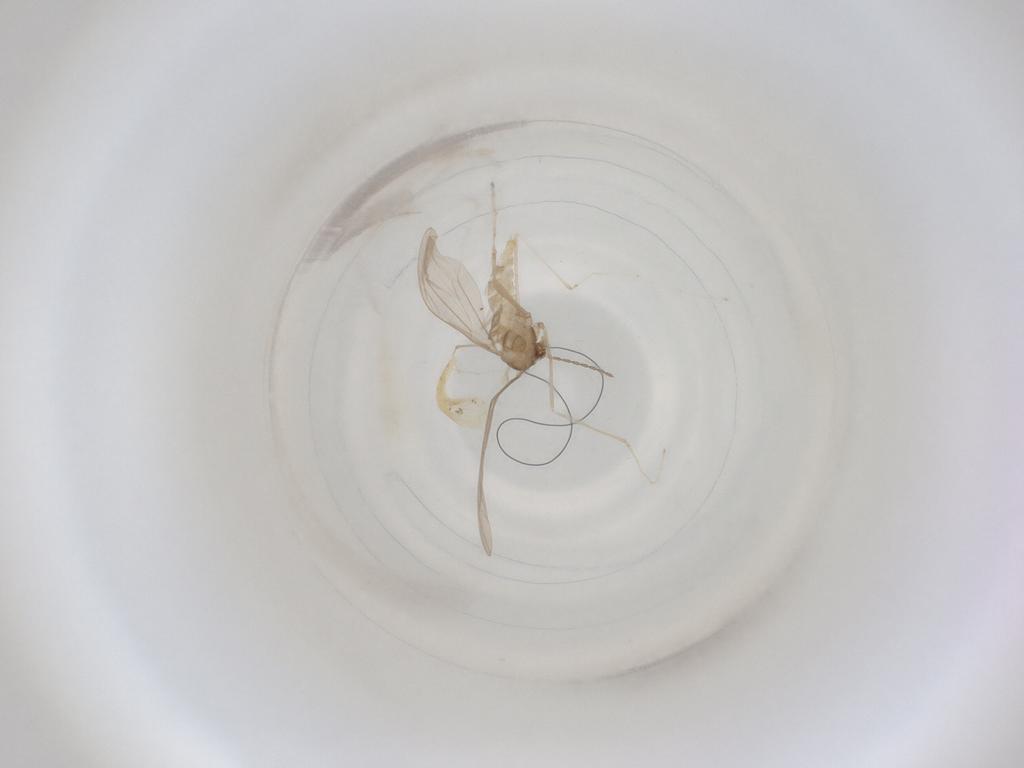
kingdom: Animalia
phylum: Arthropoda
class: Insecta
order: Diptera
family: Cecidomyiidae
